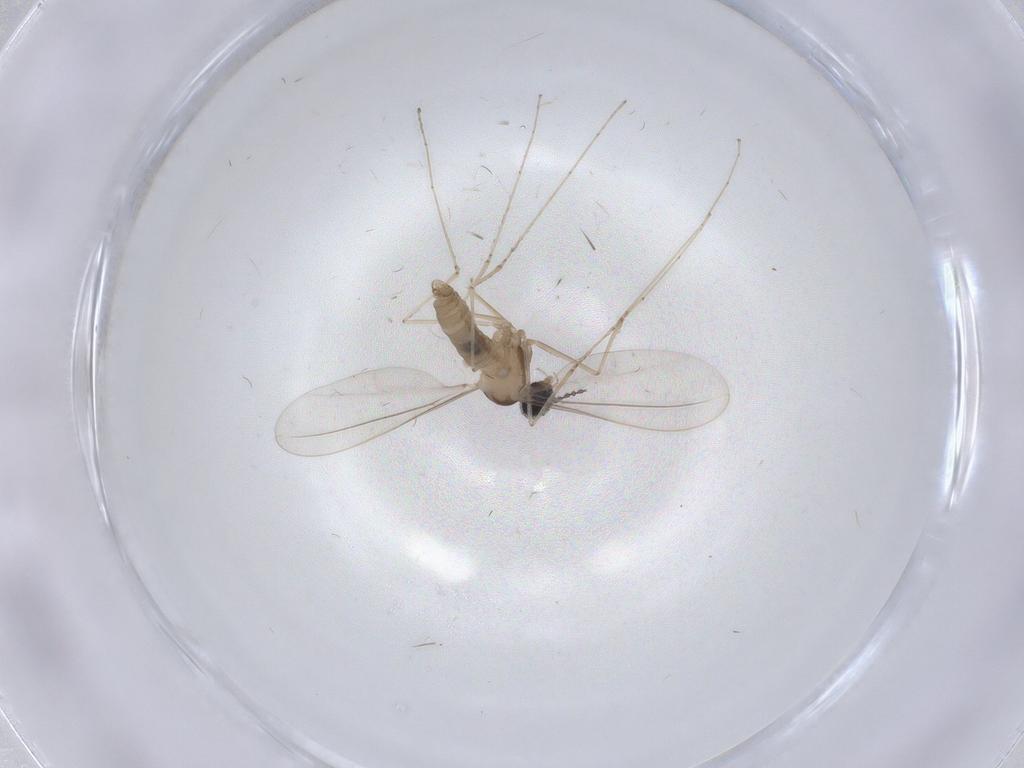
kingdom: Animalia
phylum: Arthropoda
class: Insecta
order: Diptera
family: Cecidomyiidae
